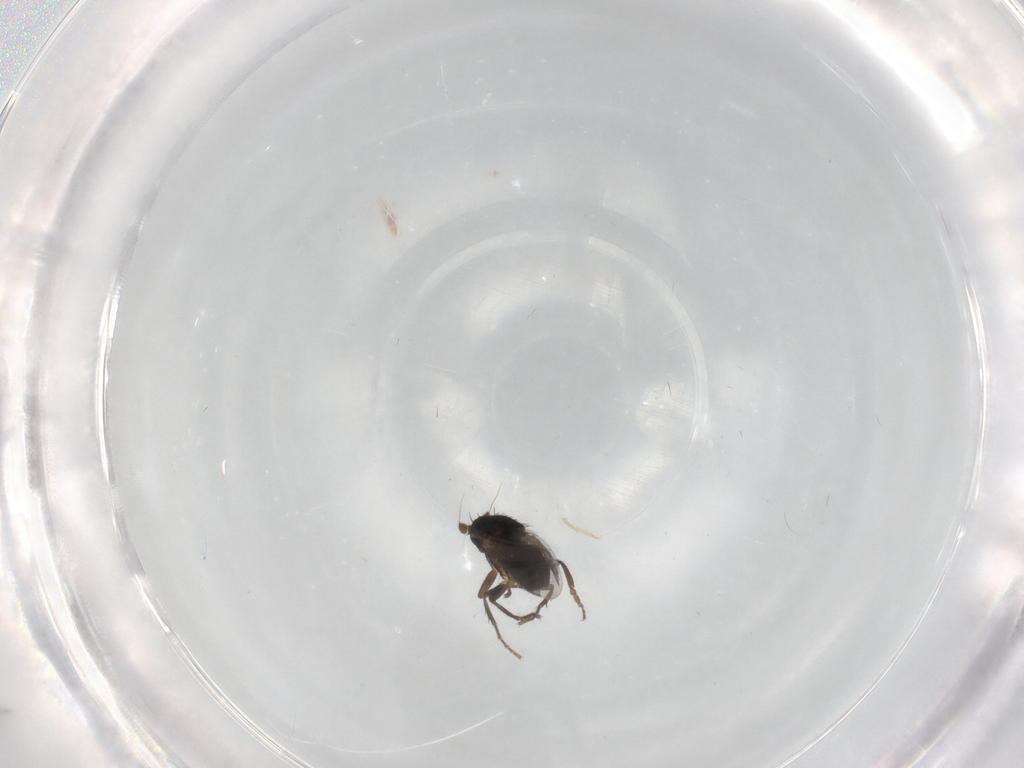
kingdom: Animalia
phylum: Arthropoda
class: Insecta
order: Diptera
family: Sphaeroceridae
